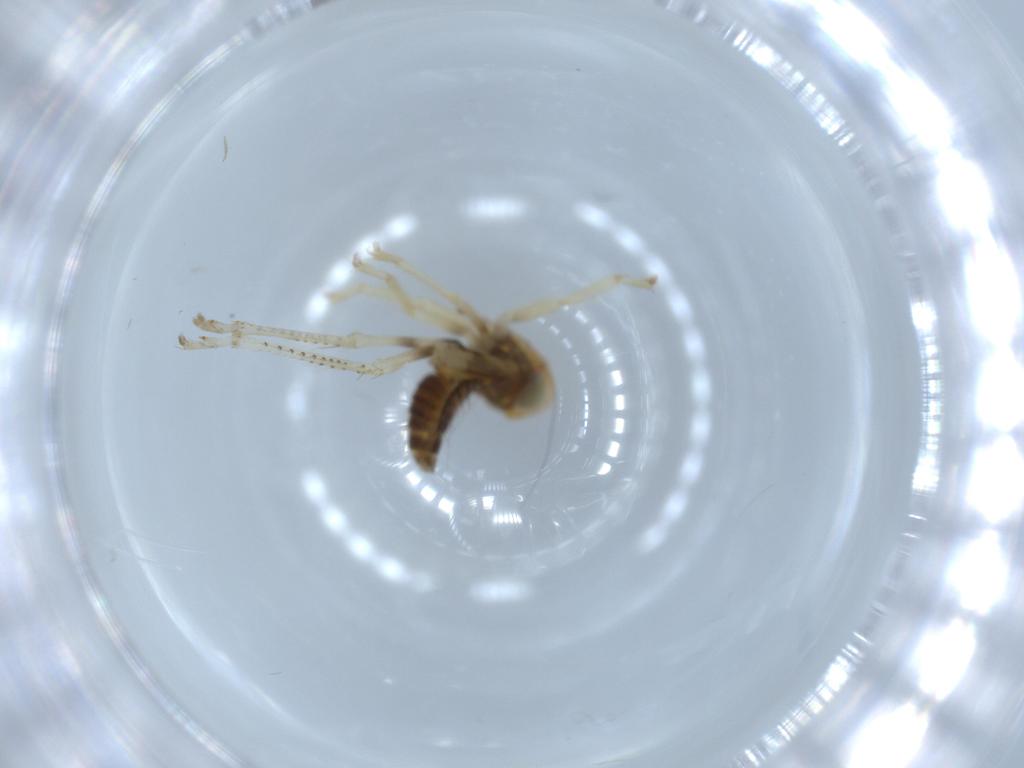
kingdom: Animalia
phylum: Arthropoda
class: Insecta
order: Hemiptera
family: Cicadellidae
